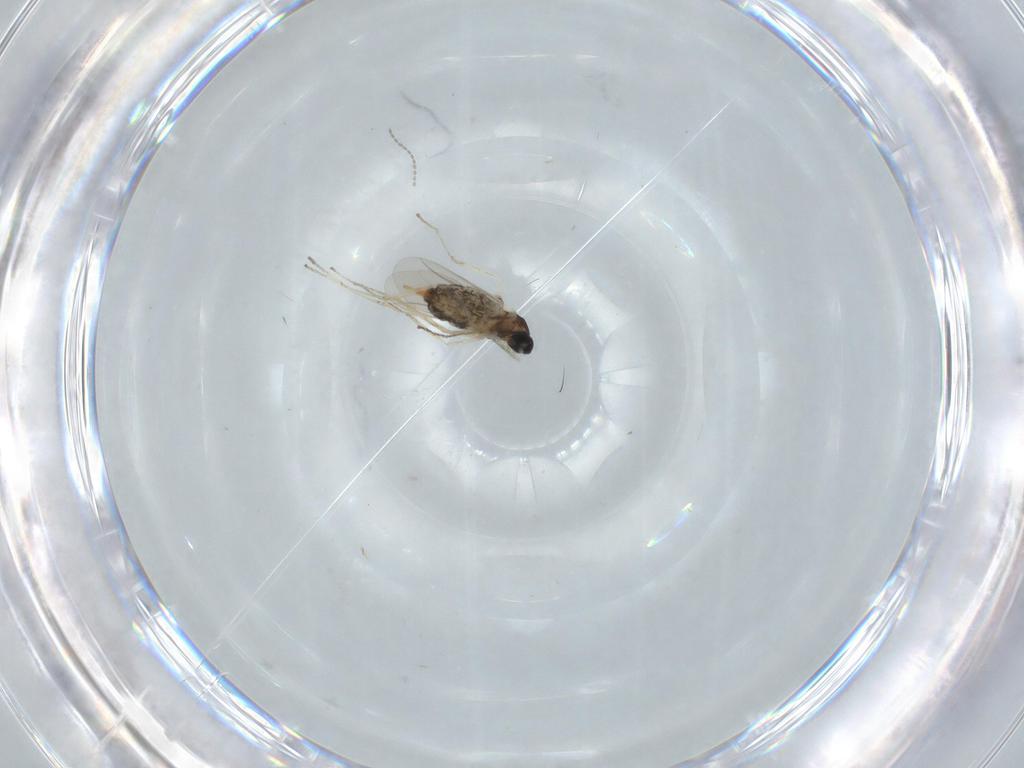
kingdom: Animalia
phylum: Arthropoda
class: Insecta
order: Diptera
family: Cecidomyiidae
